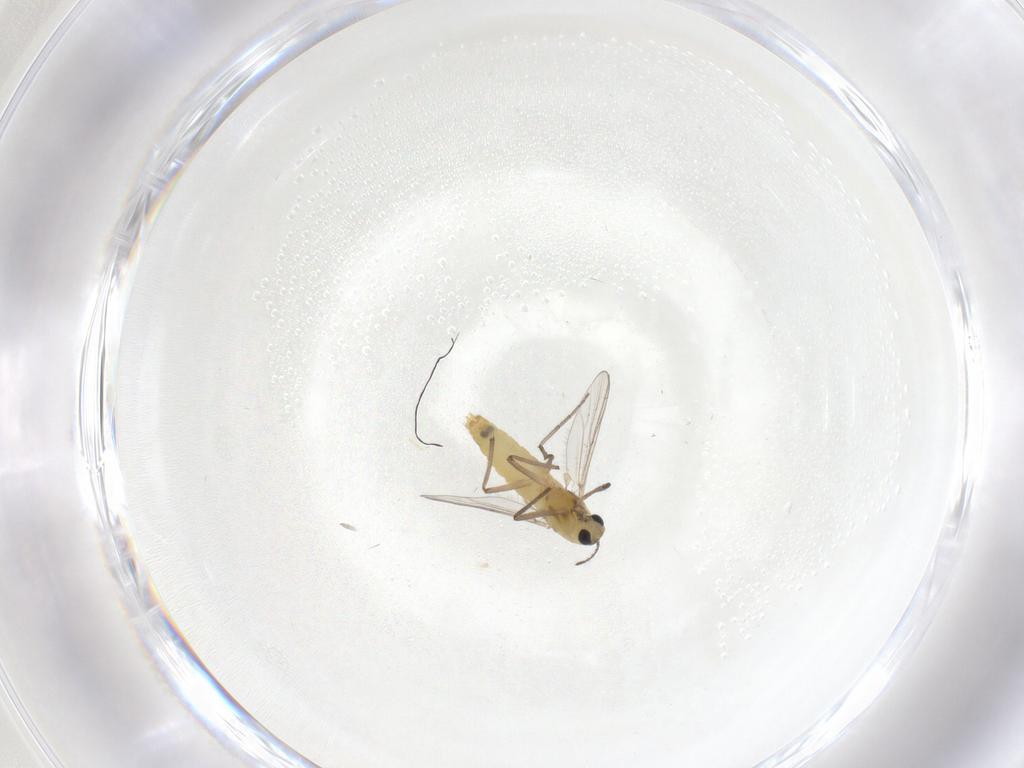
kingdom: Animalia
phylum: Arthropoda
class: Insecta
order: Diptera
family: Chironomidae
